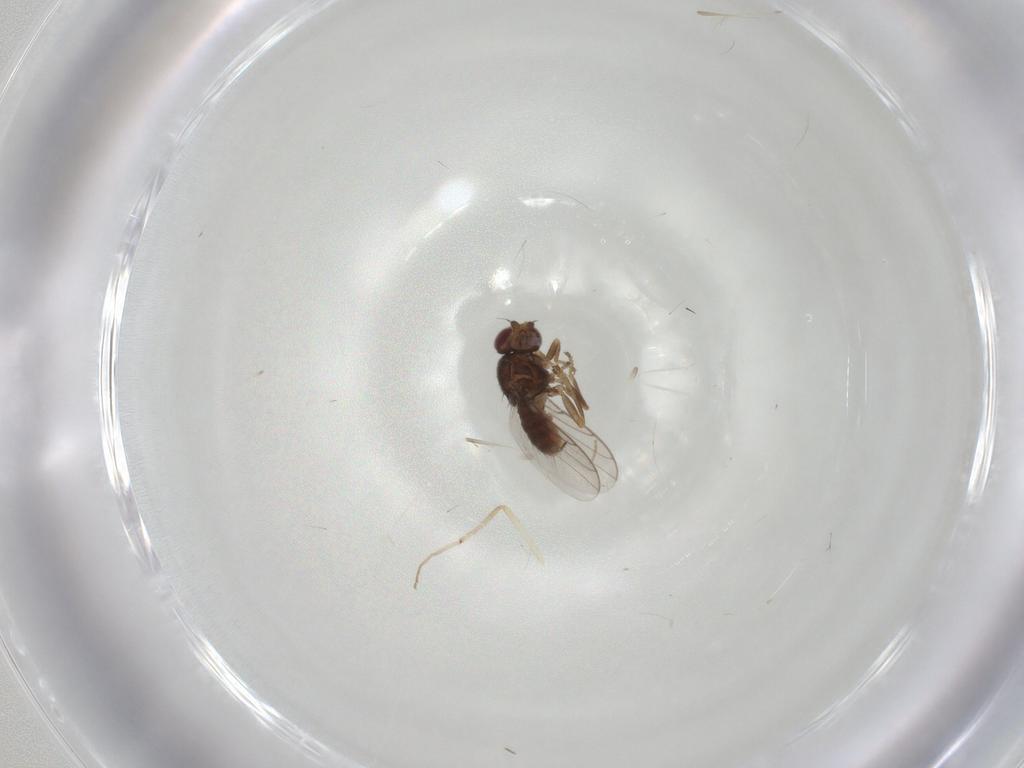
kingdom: Animalia
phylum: Arthropoda
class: Insecta
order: Diptera
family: Chloropidae
